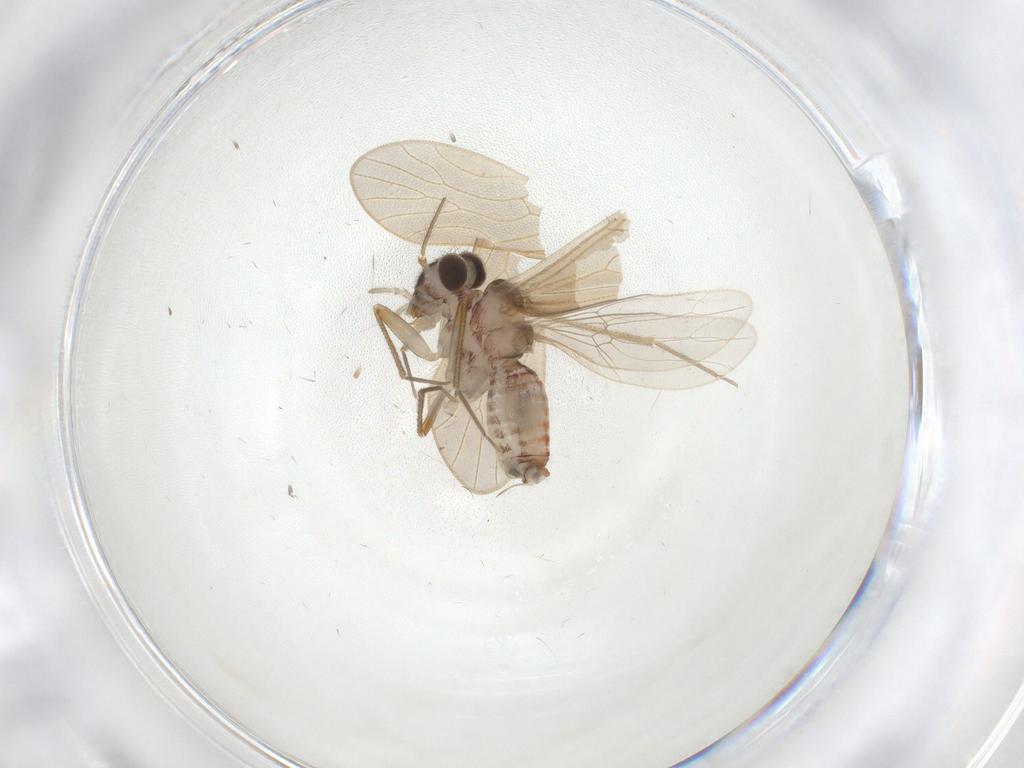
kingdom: Animalia
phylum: Arthropoda
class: Insecta
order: Psocodea
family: Mesopsocidae
